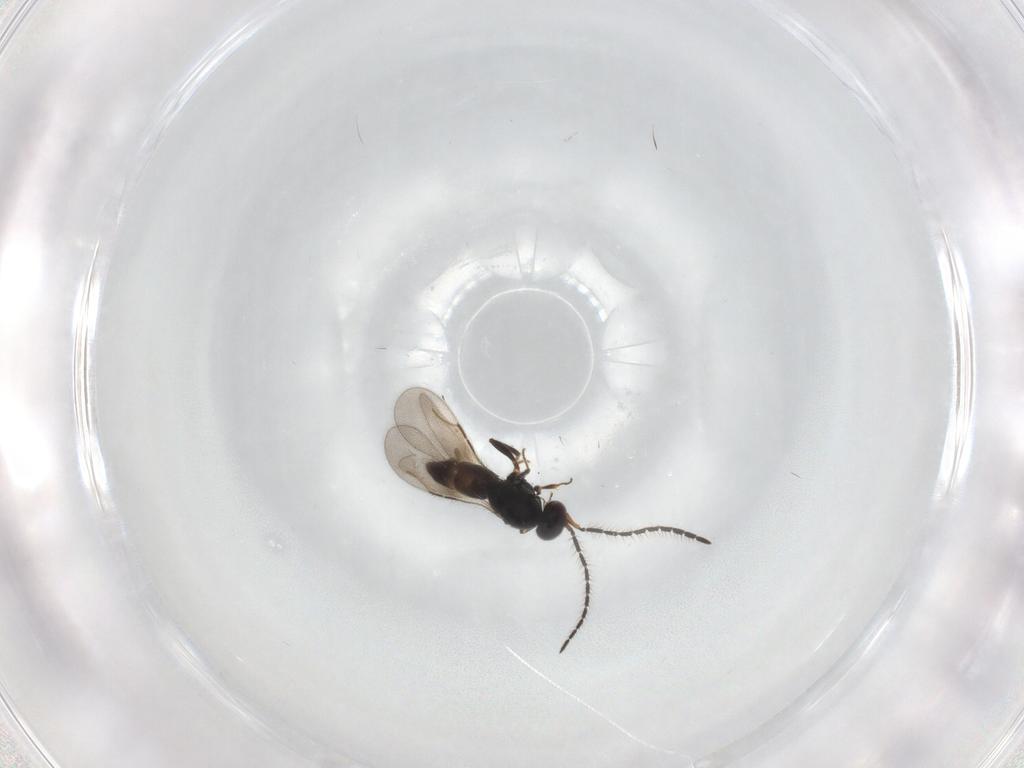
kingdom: Animalia
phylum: Arthropoda
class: Insecta
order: Hymenoptera
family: Ceraphronidae
